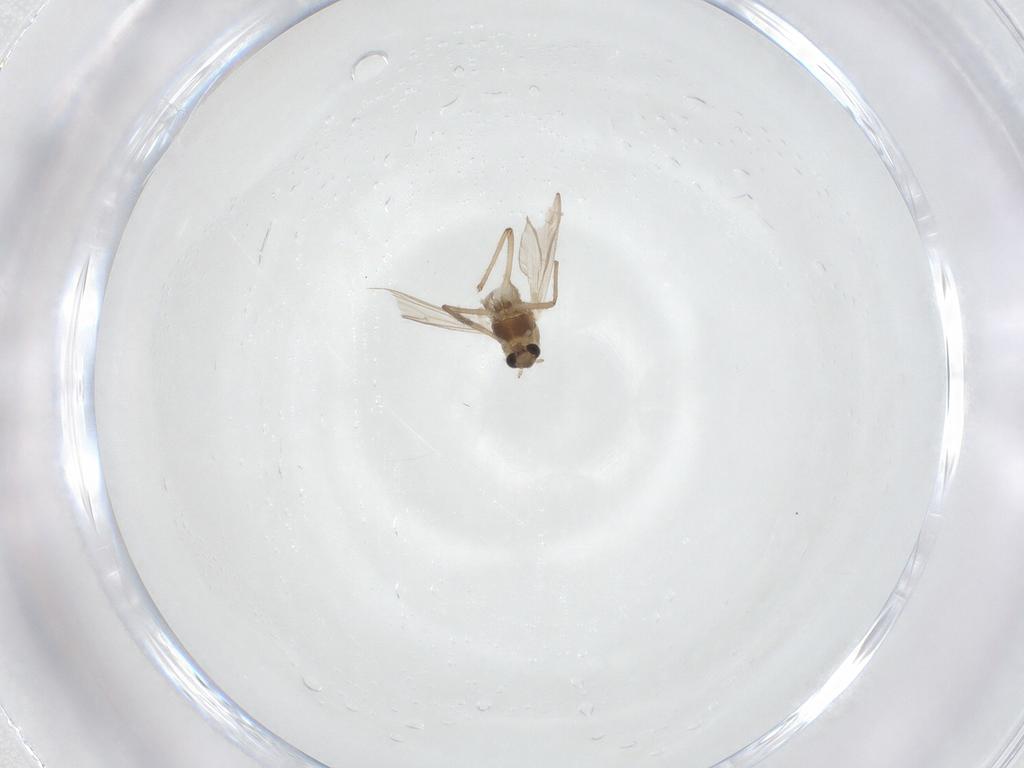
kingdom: Animalia
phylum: Arthropoda
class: Insecta
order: Diptera
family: Chironomidae
